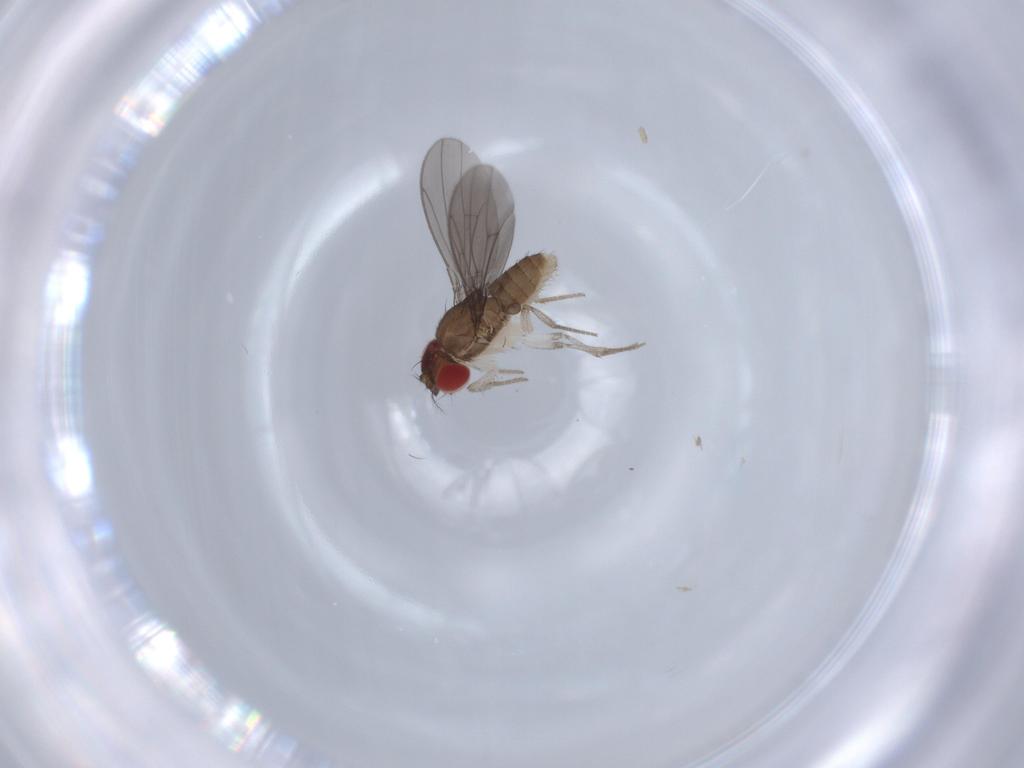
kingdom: Animalia
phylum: Arthropoda
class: Insecta
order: Diptera
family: Drosophilidae
